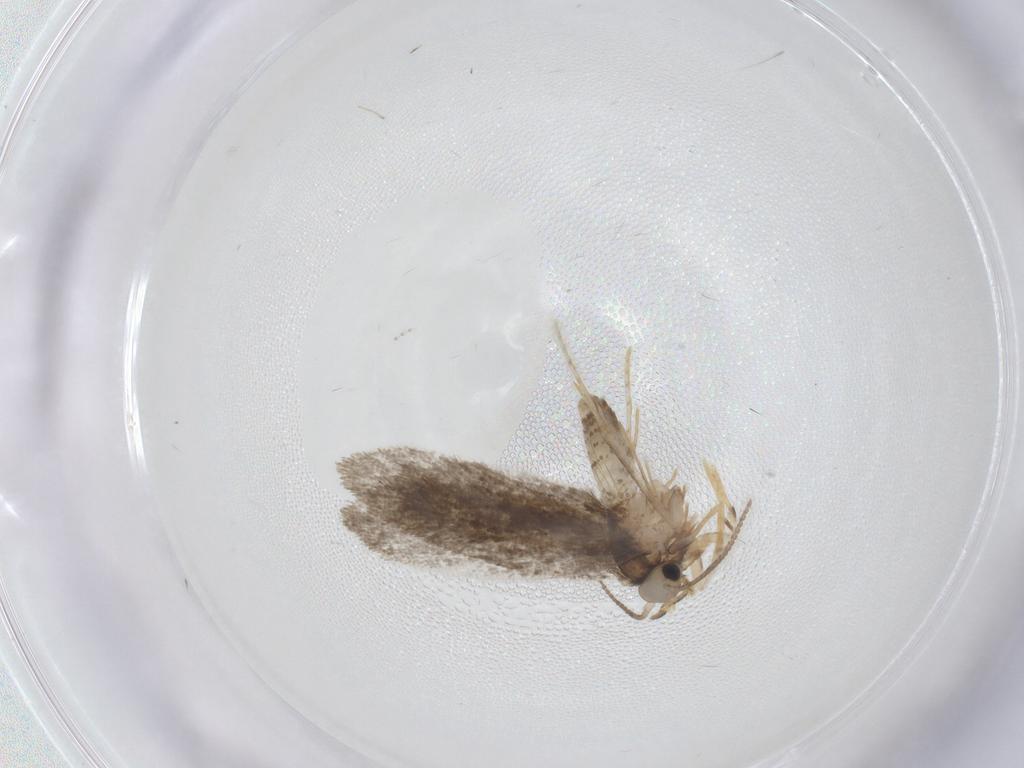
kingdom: Animalia
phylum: Arthropoda
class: Insecta
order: Lepidoptera
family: Psychidae
